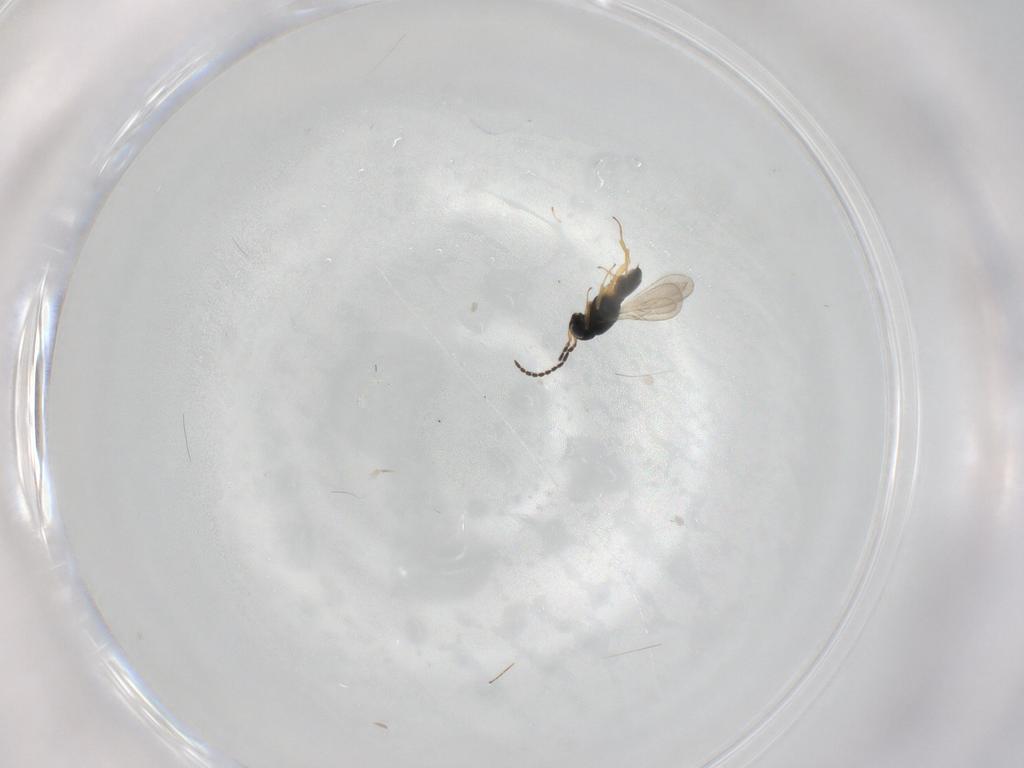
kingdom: Animalia
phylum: Arthropoda
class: Insecta
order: Hymenoptera
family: Scelionidae
